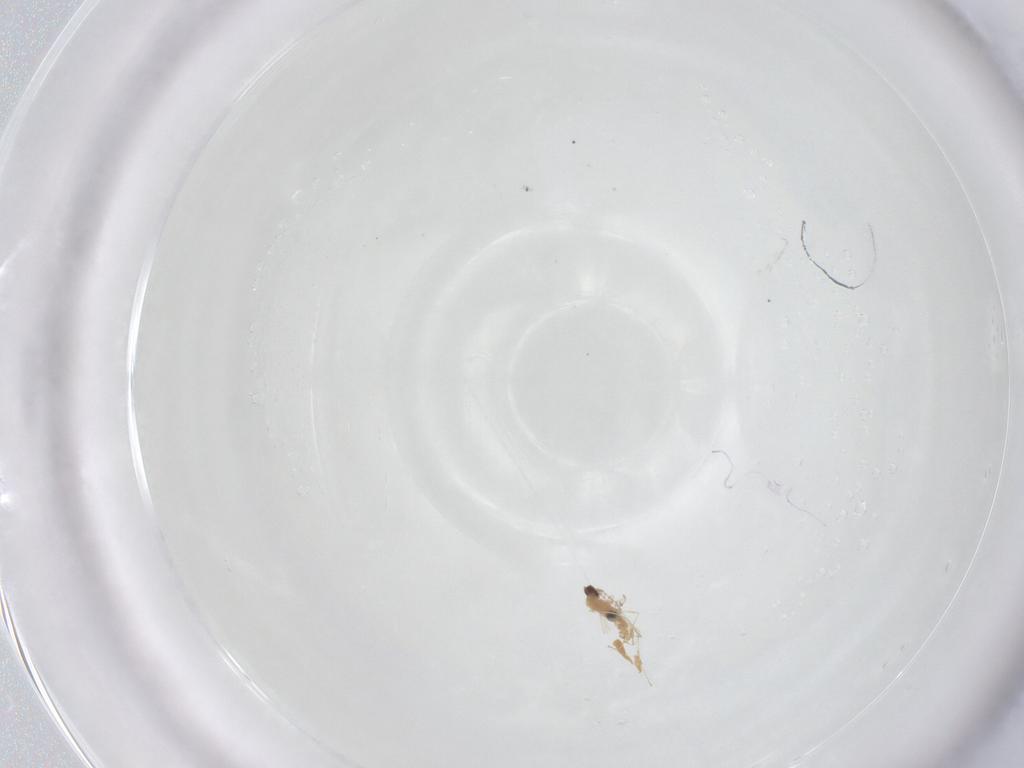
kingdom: Animalia
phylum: Arthropoda
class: Insecta
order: Diptera
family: Cecidomyiidae
